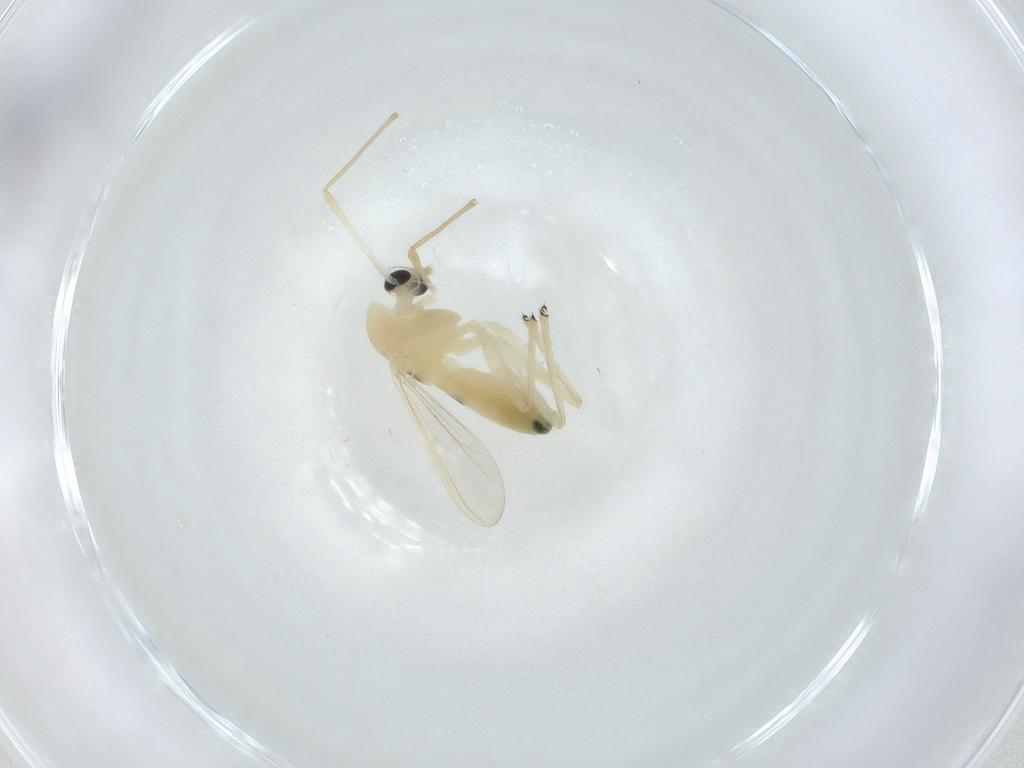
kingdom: Animalia
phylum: Arthropoda
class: Insecta
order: Diptera
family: Chironomidae
